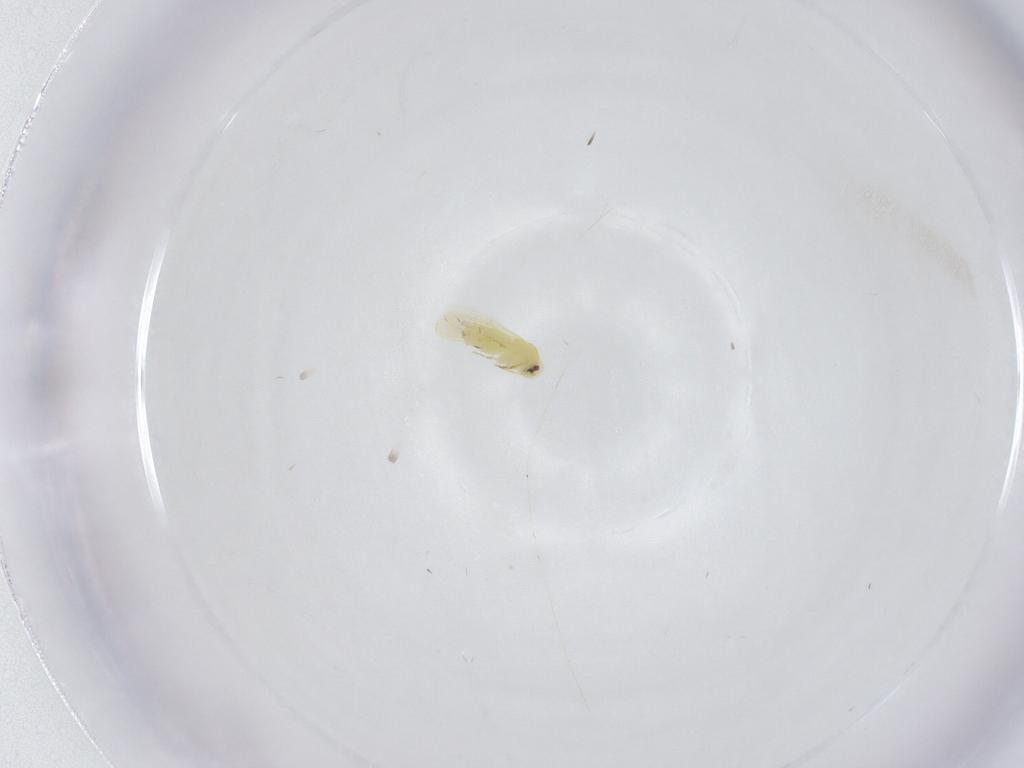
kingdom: Animalia
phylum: Arthropoda
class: Insecta
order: Hemiptera
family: Aleyrodidae
